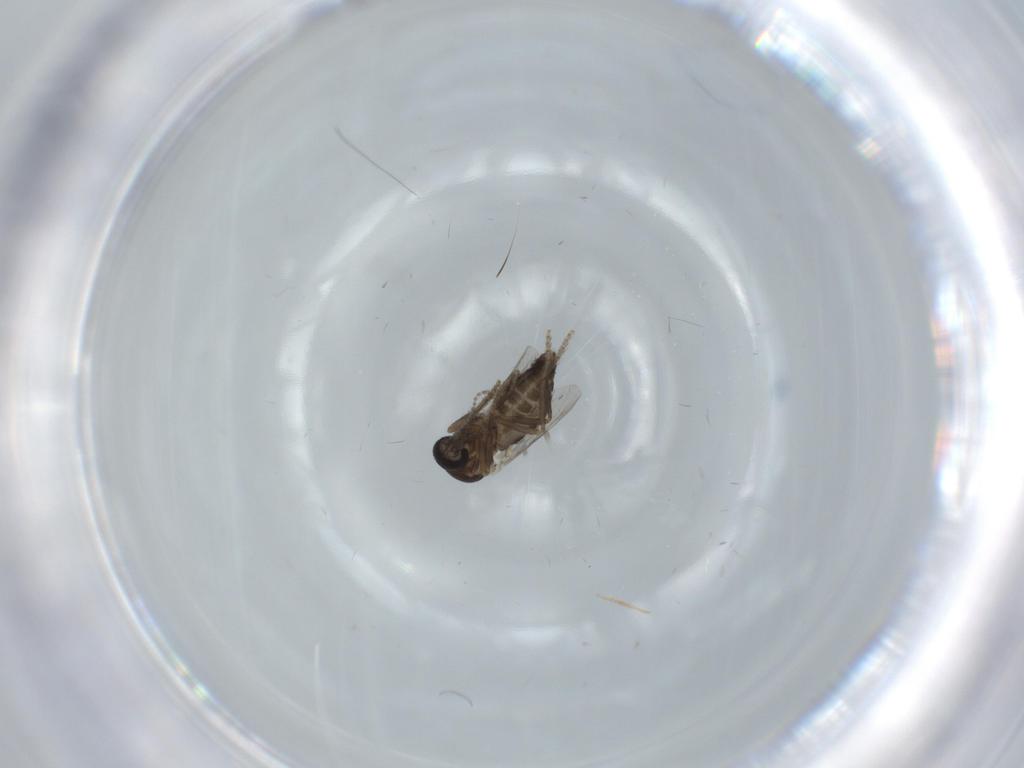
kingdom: Animalia
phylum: Arthropoda
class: Insecta
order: Diptera
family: Ceratopogonidae
